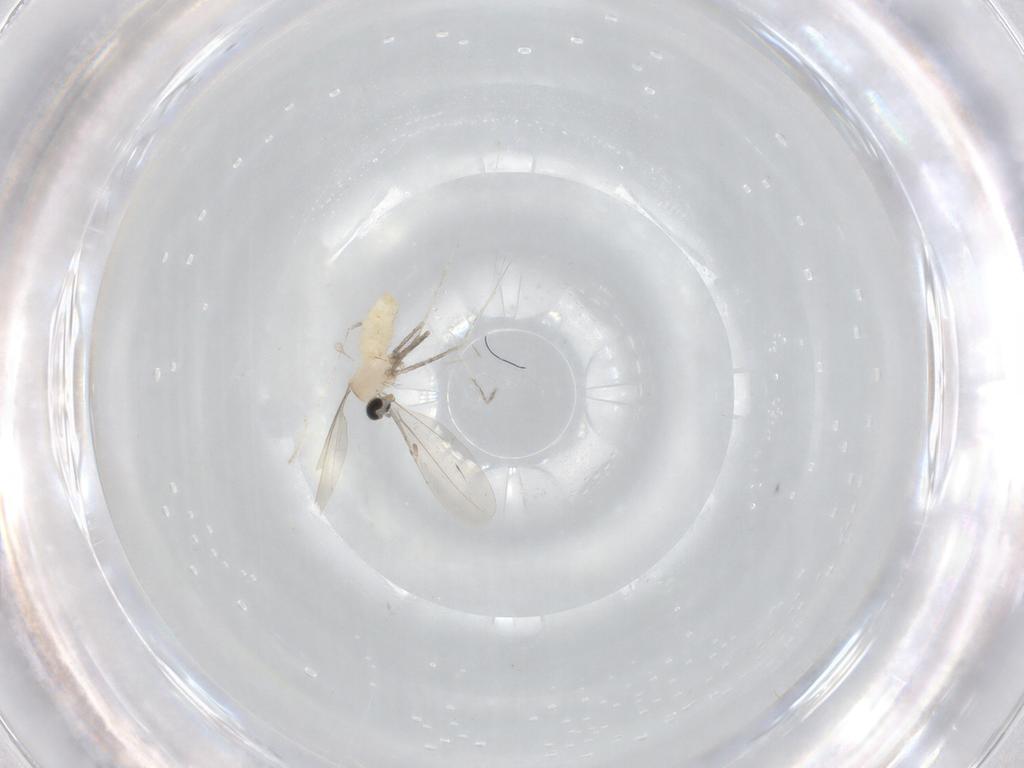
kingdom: Animalia
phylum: Arthropoda
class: Insecta
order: Diptera
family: Cecidomyiidae
